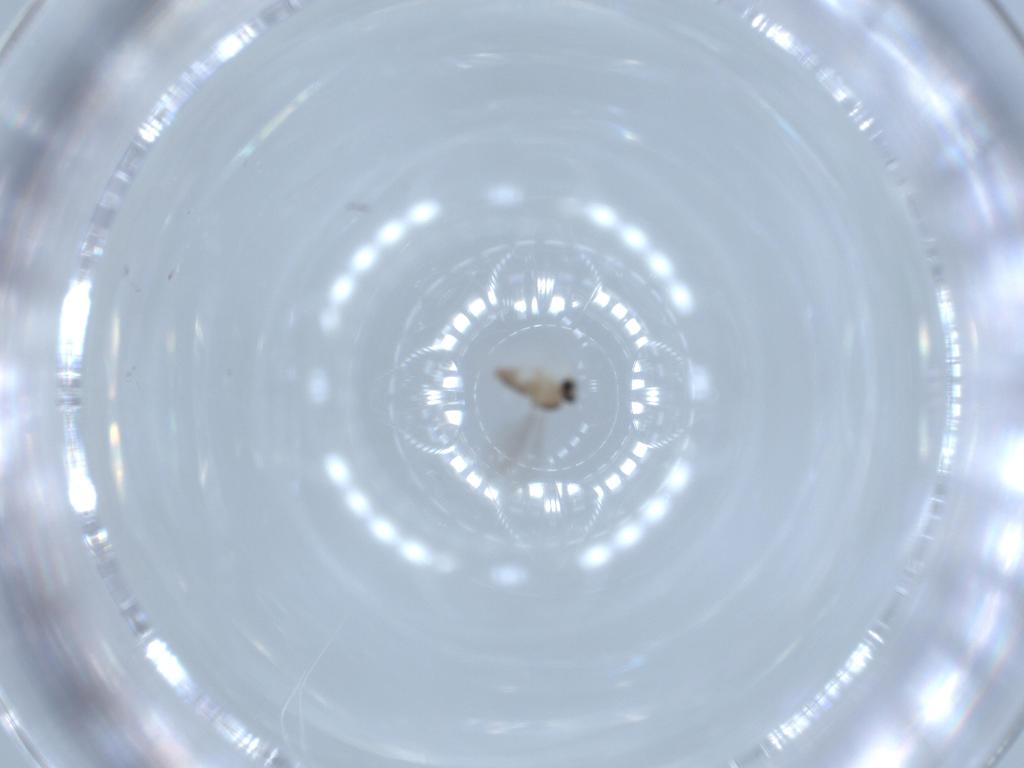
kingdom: Animalia
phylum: Arthropoda
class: Insecta
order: Diptera
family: Cecidomyiidae
